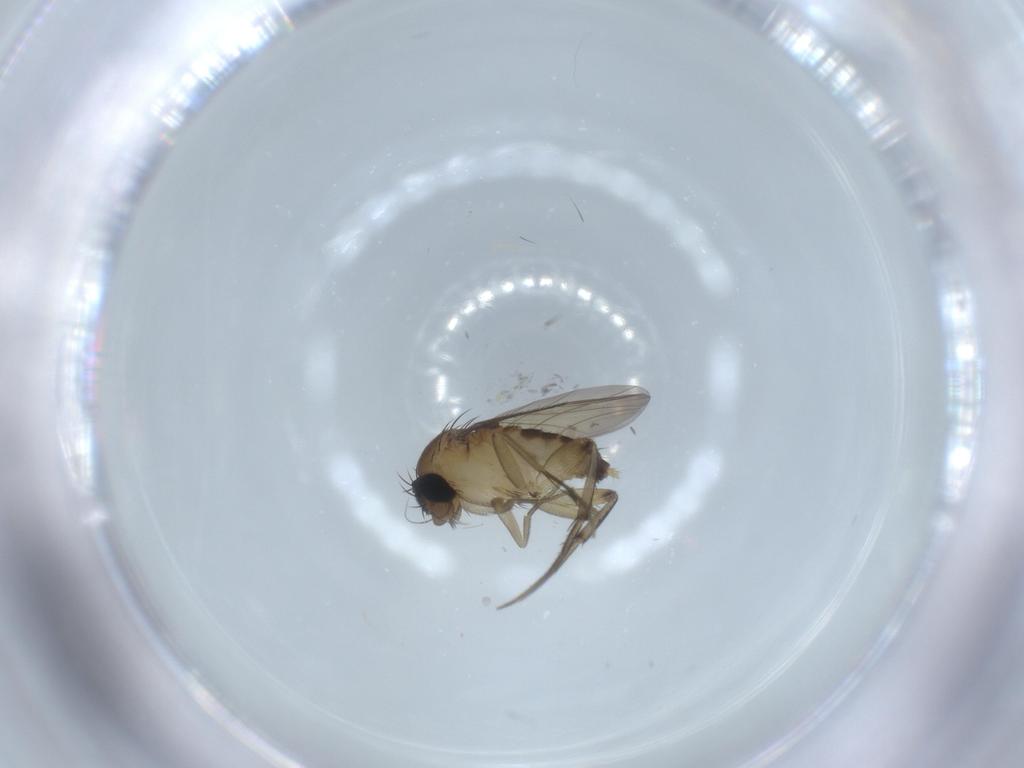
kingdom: Animalia
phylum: Arthropoda
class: Insecta
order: Diptera
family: Phoridae
